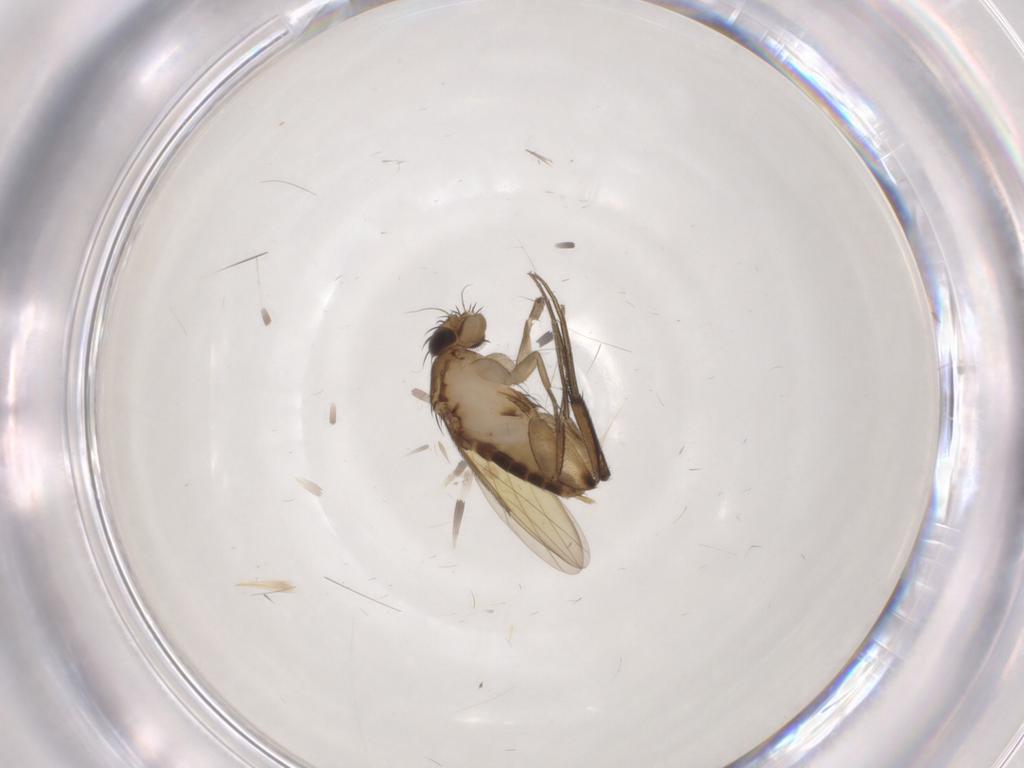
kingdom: Animalia
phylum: Arthropoda
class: Insecta
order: Diptera
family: Phoridae
